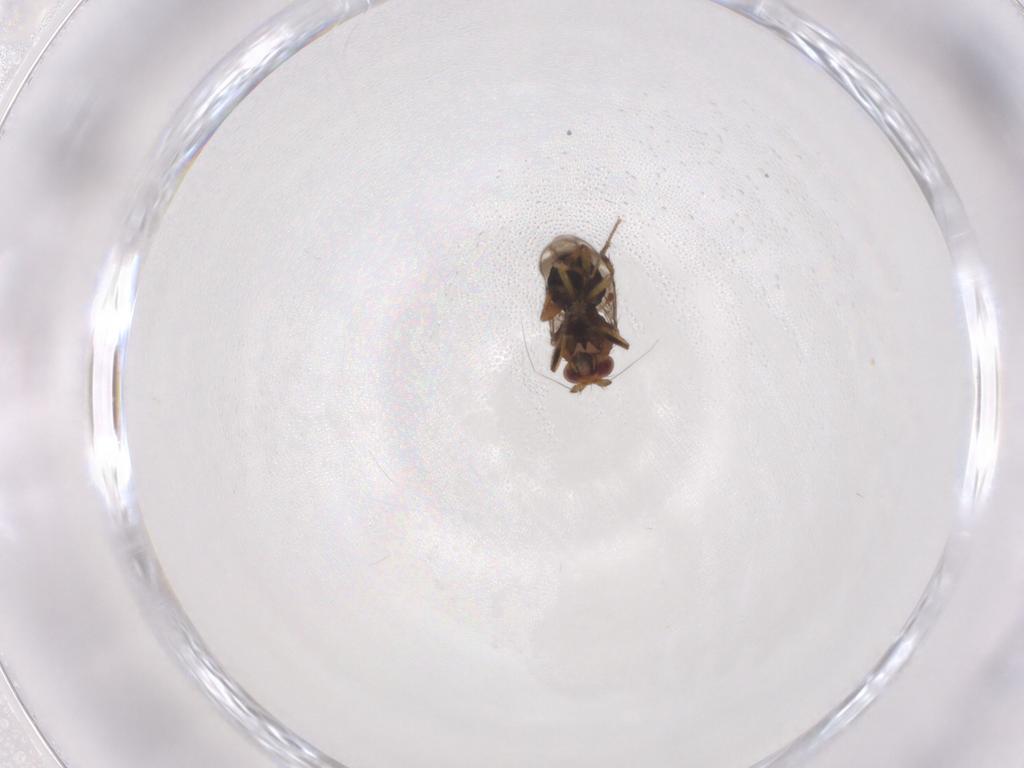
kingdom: Animalia
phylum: Arthropoda
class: Insecta
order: Diptera
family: Sphaeroceridae
